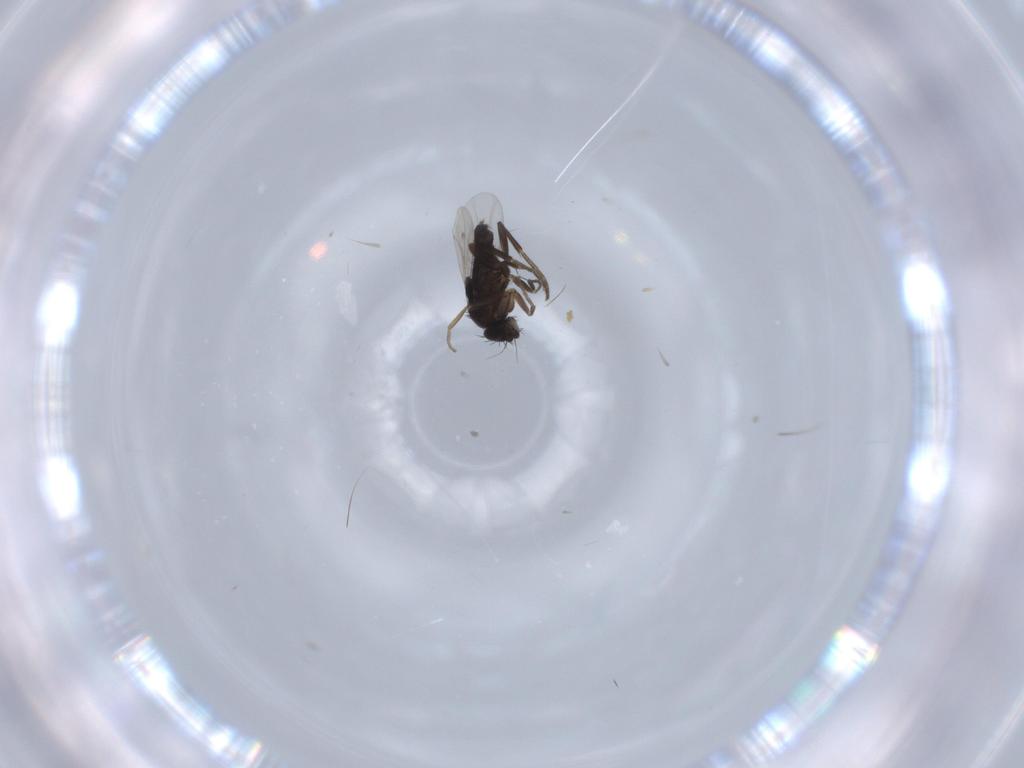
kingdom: Animalia
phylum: Arthropoda
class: Insecta
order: Diptera
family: Phoridae
